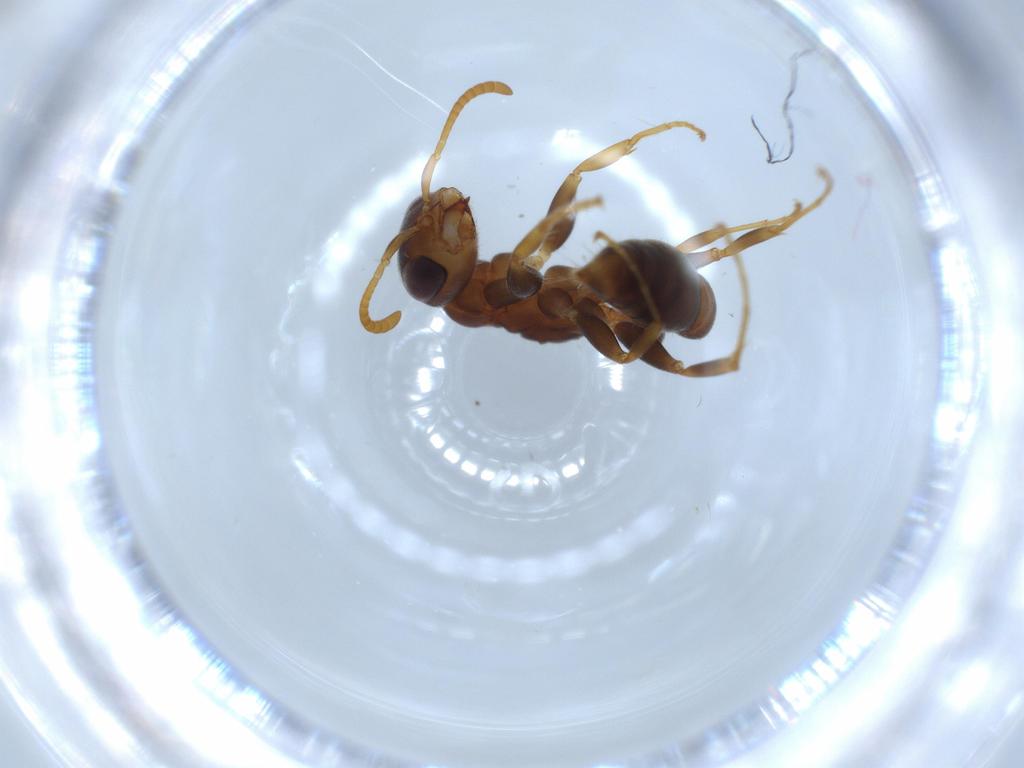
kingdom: Animalia
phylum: Arthropoda
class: Insecta
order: Hymenoptera
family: Formicidae
